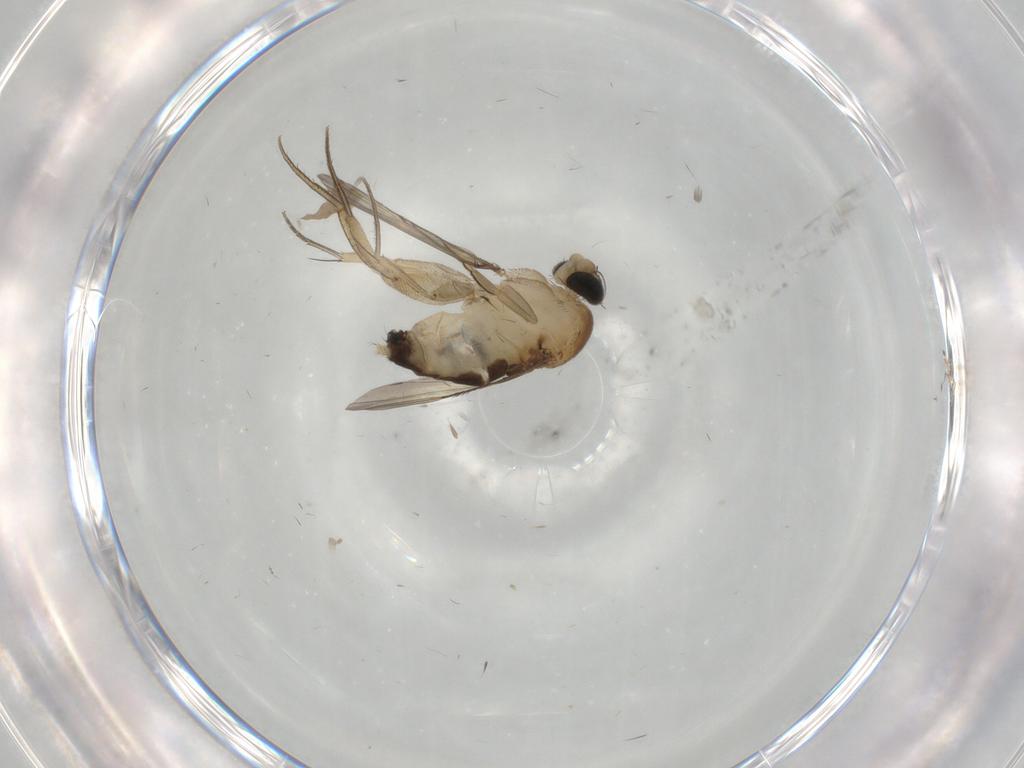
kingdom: Animalia
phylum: Arthropoda
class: Insecta
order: Diptera
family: Phoridae
